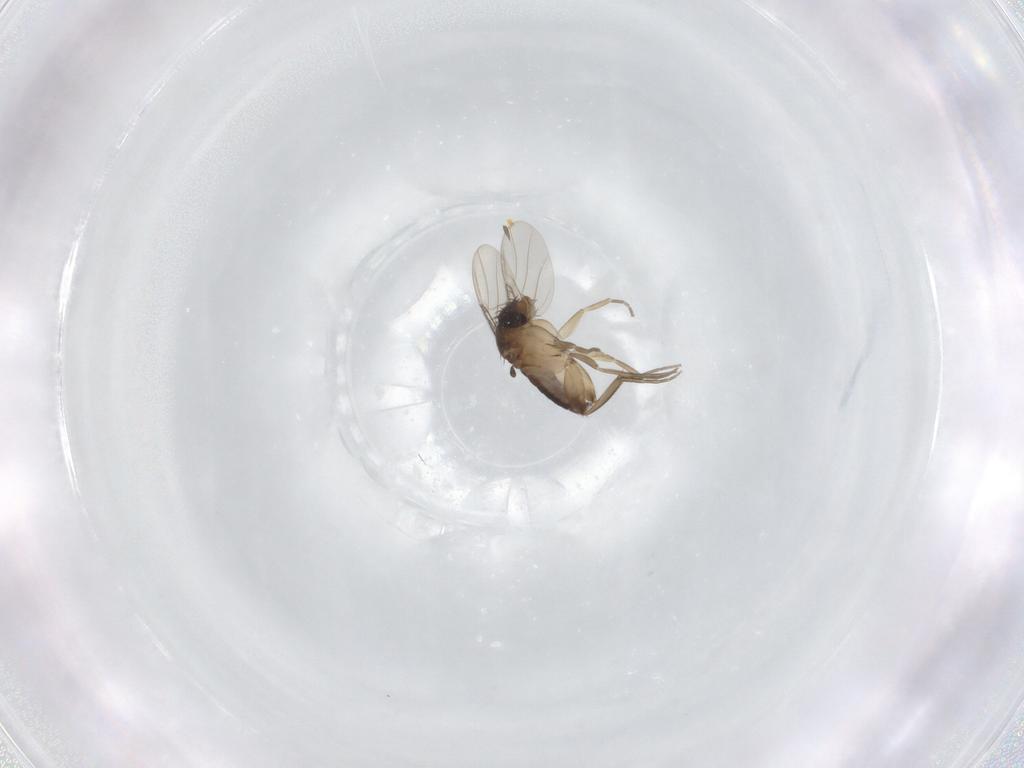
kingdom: Animalia
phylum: Arthropoda
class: Insecta
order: Diptera
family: Phoridae
